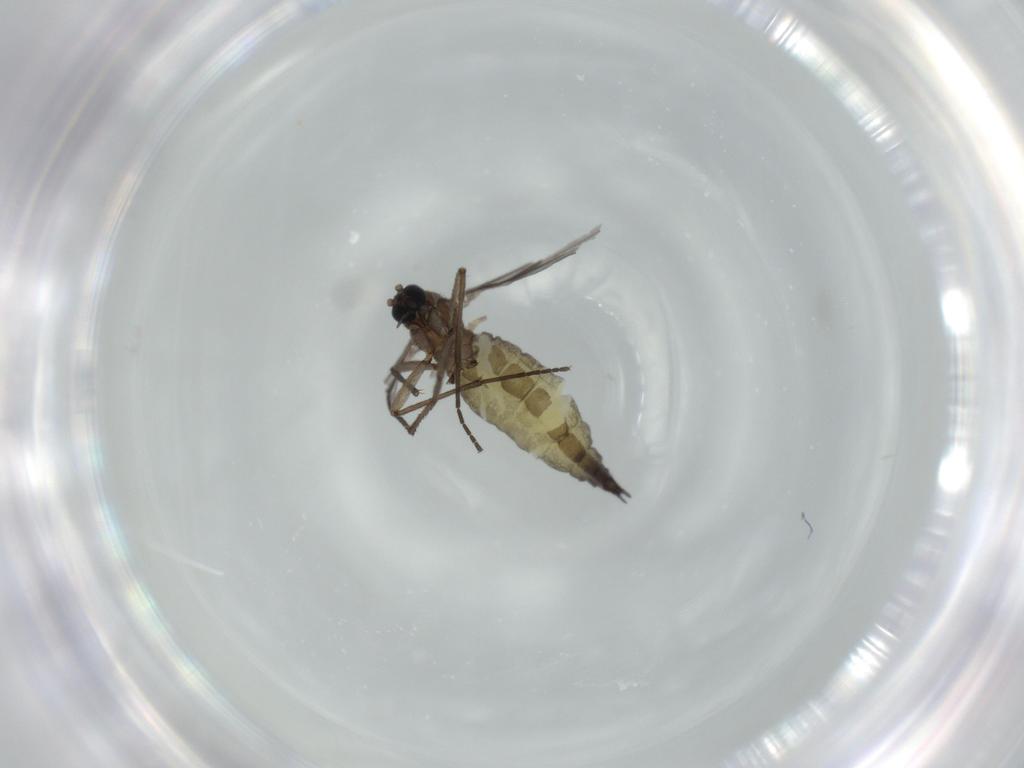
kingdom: Animalia
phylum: Arthropoda
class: Insecta
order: Diptera
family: Sciaridae
